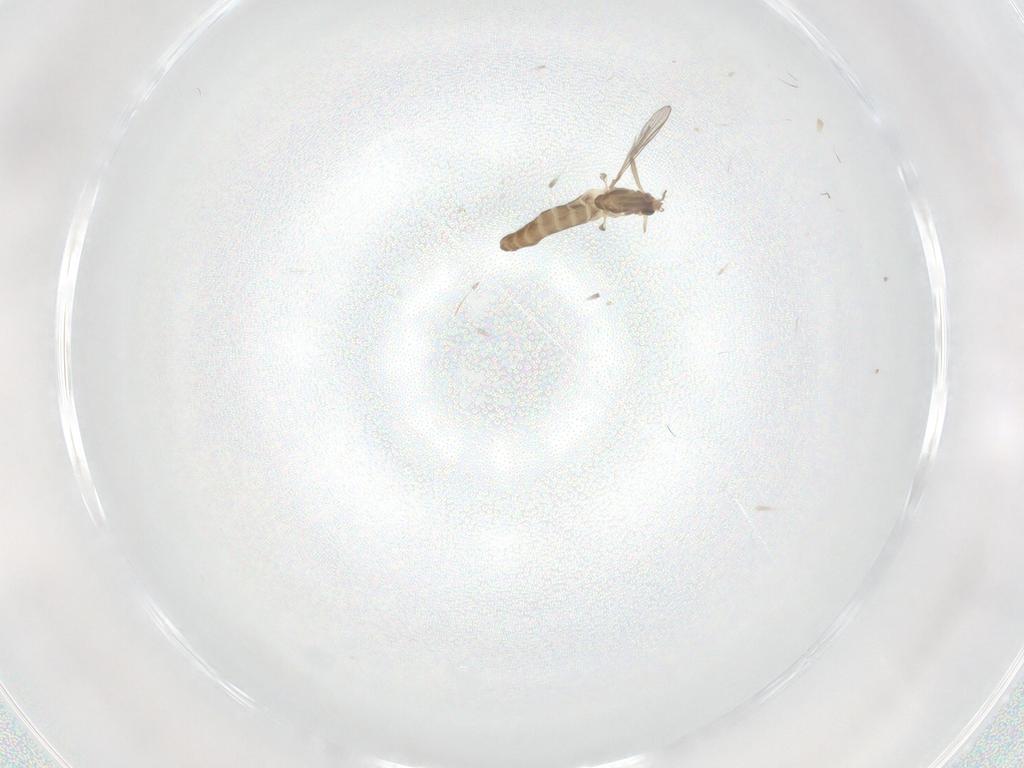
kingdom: Animalia
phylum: Arthropoda
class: Insecta
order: Diptera
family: Chironomidae
